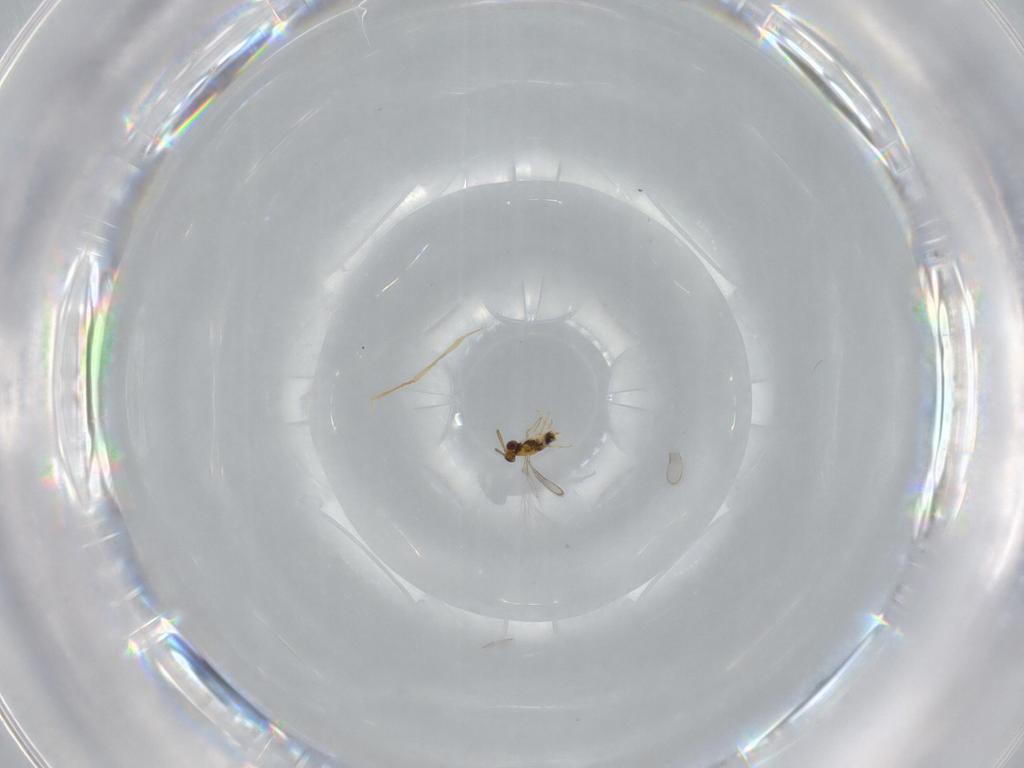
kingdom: Animalia
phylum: Arthropoda
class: Insecta
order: Hymenoptera
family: Aphelinidae
